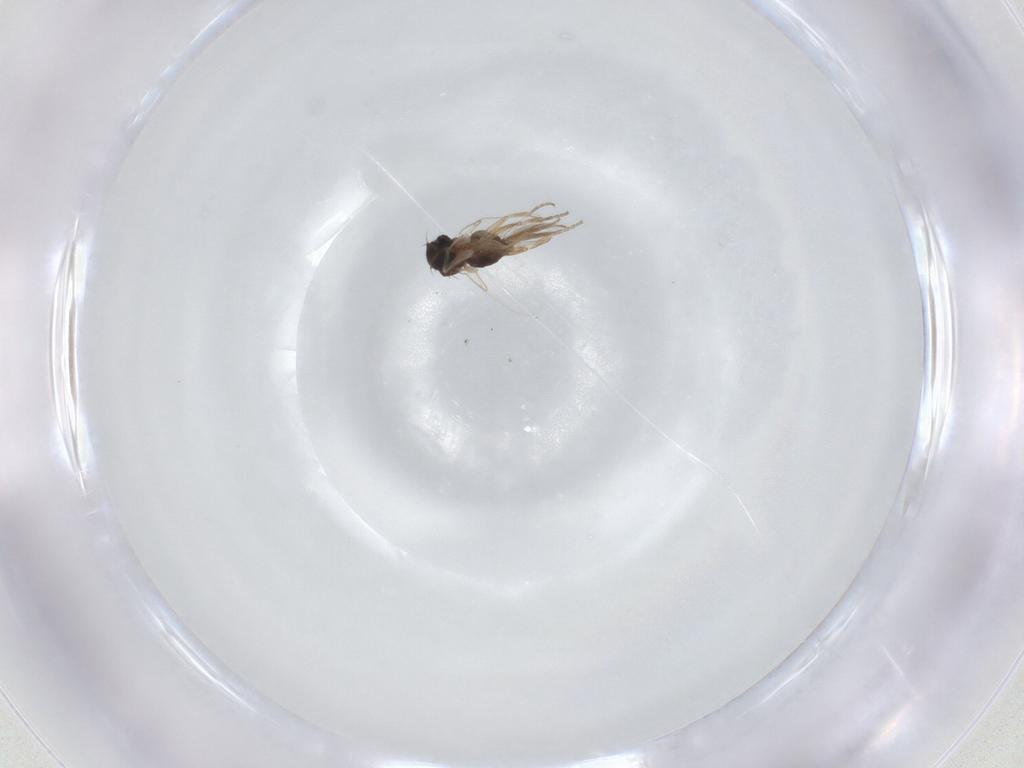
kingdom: Animalia
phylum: Arthropoda
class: Insecta
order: Diptera
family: Phoridae
